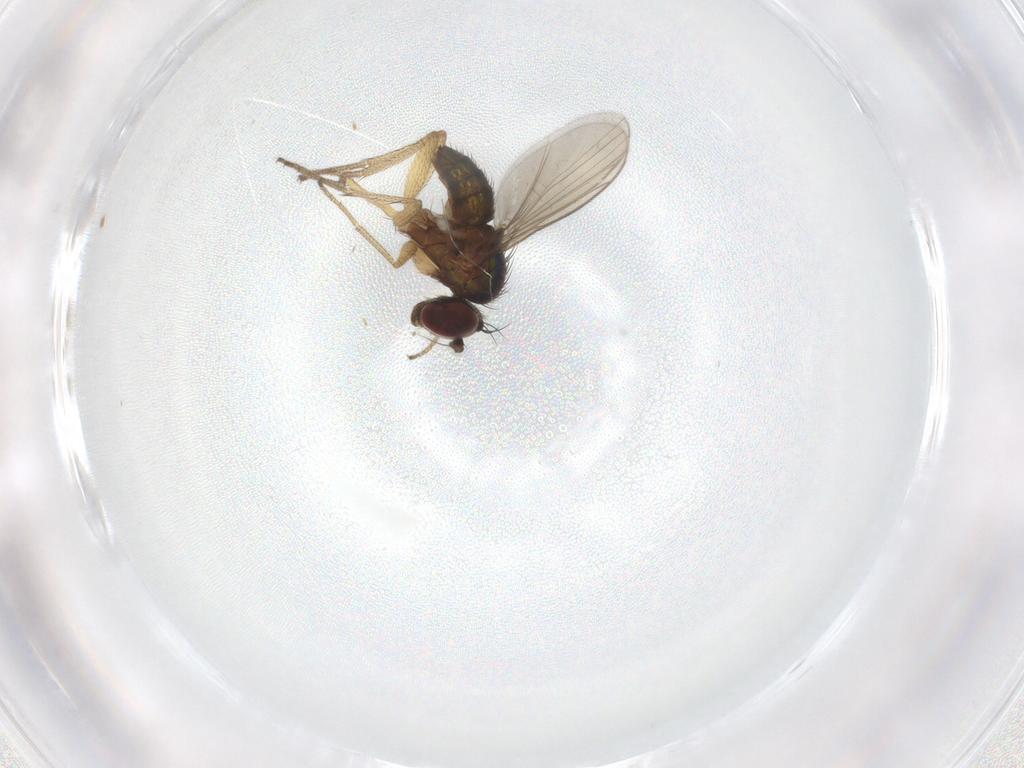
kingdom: Animalia
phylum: Arthropoda
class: Insecta
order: Diptera
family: Dolichopodidae
